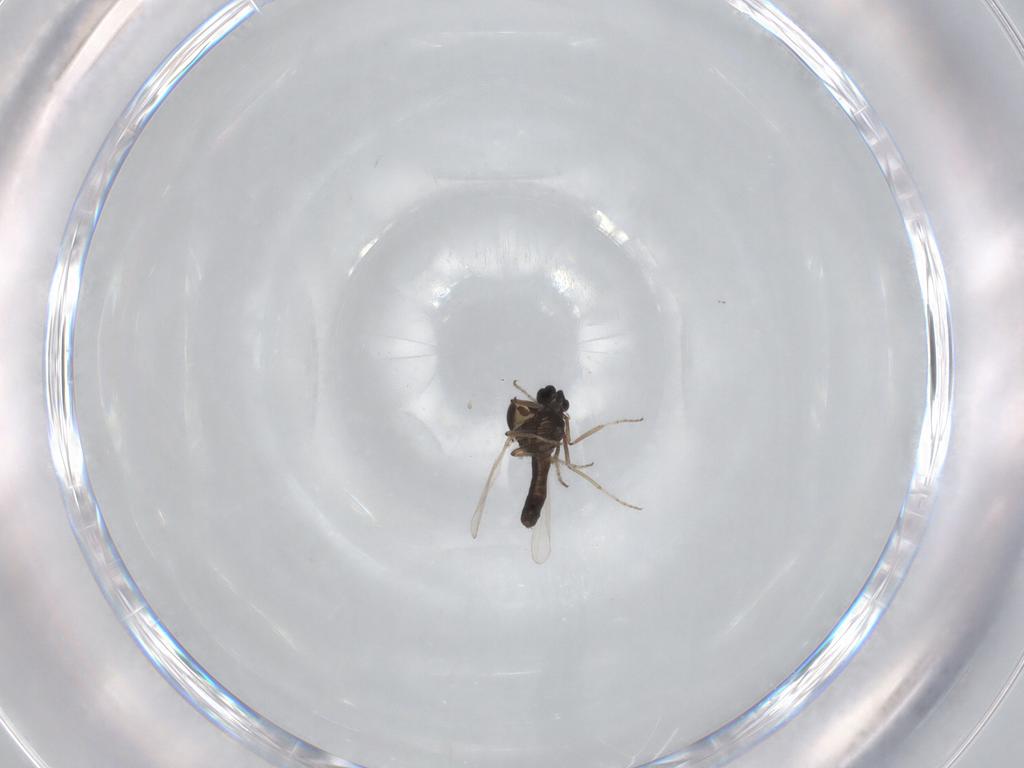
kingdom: Animalia
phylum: Arthropoda
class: Insecta
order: Diptera
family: Ceratopogonidae
